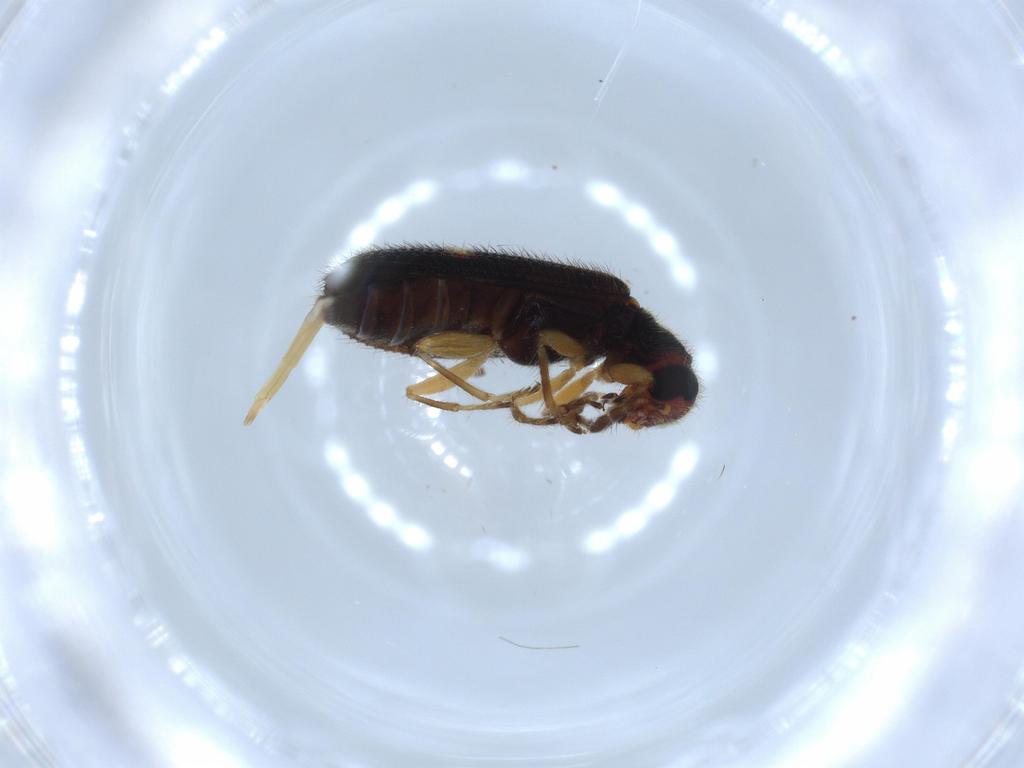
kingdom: Animalia
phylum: Arthropoda
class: Insecta
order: Coleoptera
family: Cleridae
